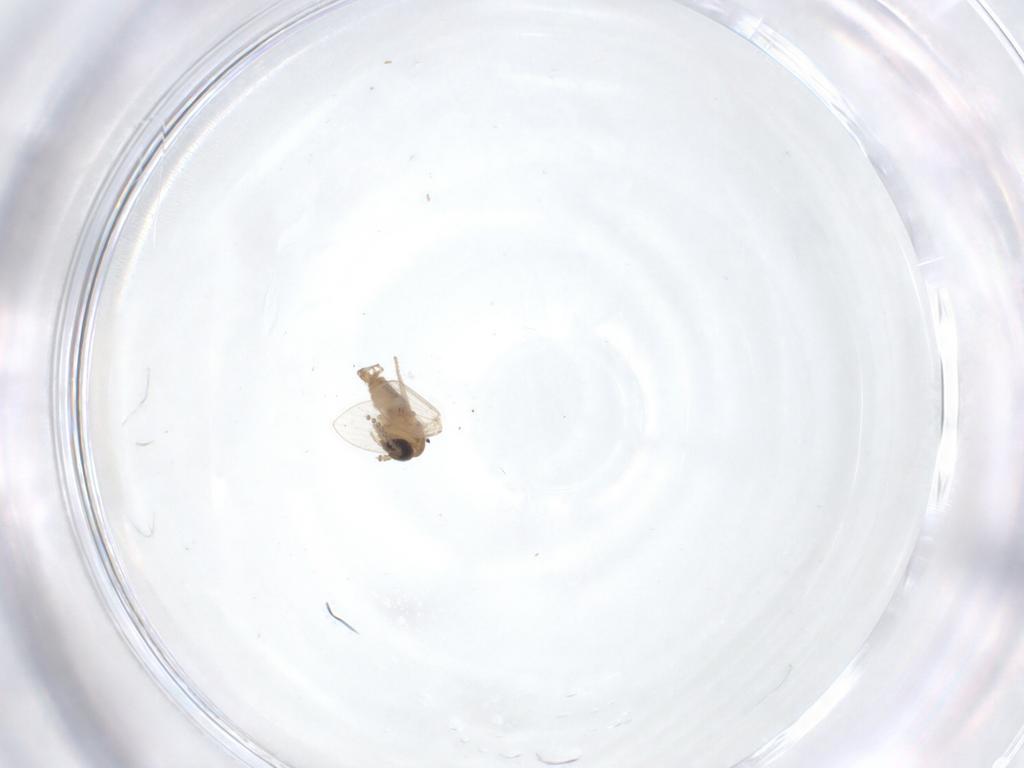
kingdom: Animalia
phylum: Arthropoda
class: Insecta
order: Diptera
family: Psychodidae
